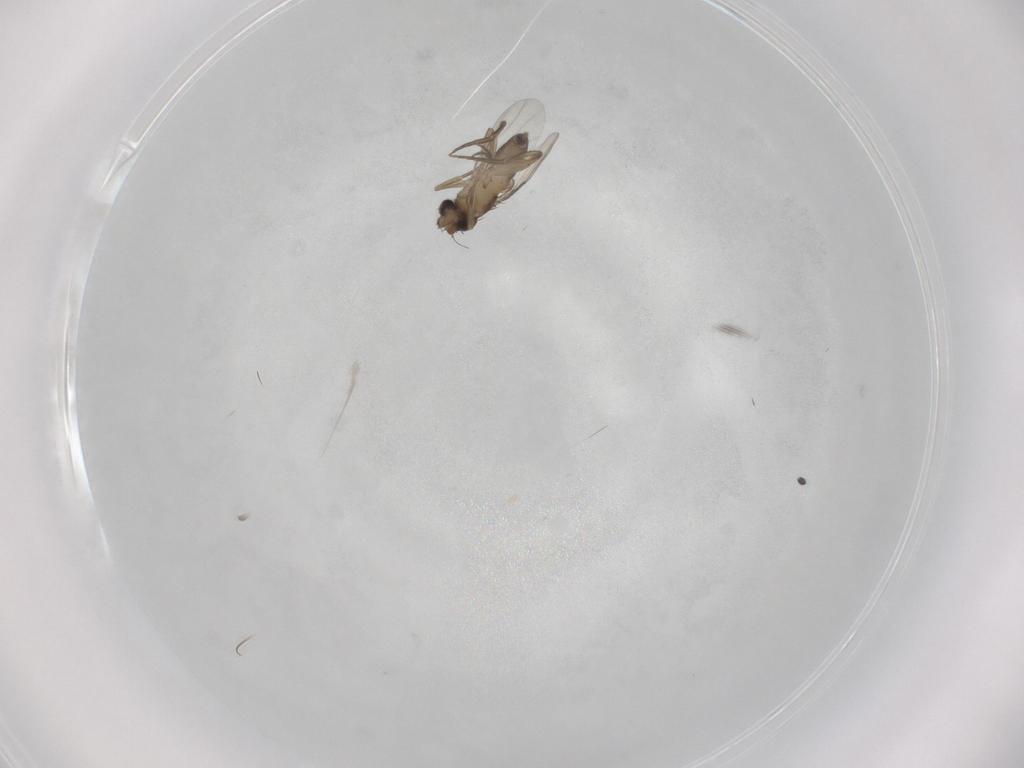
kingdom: Animalia
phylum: Arthropoda
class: Insecta
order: Diptera
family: Phoridae
